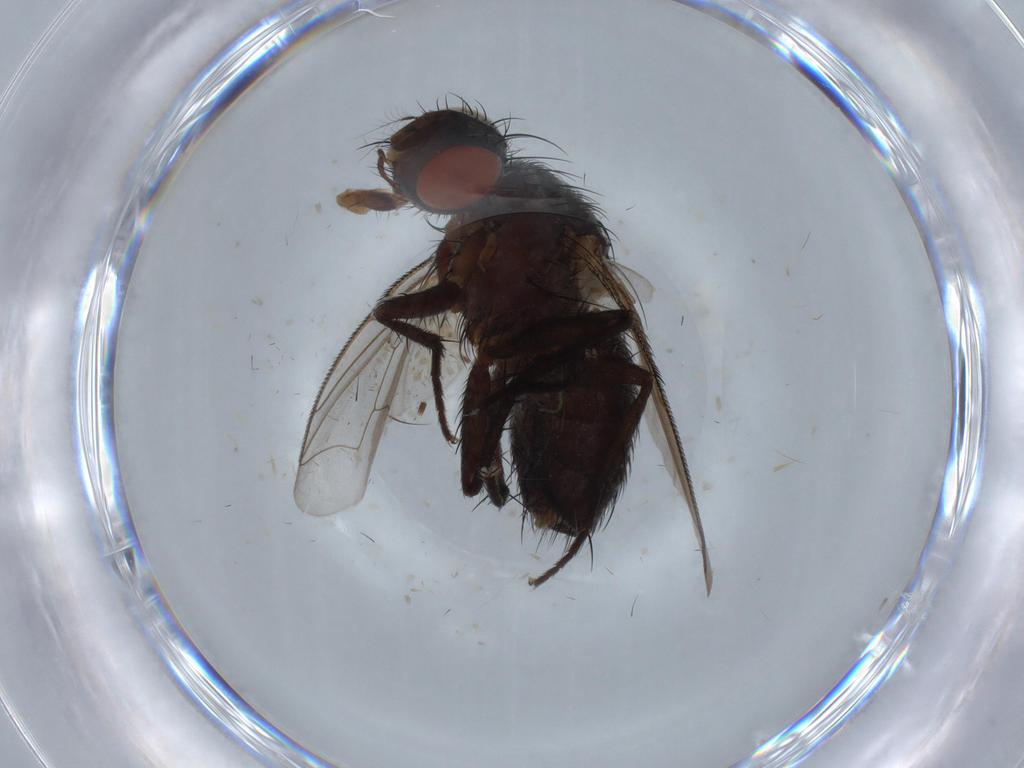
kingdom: Animalia
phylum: Arthropoda
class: Insecta
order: Diptera
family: Sarcophagidae
